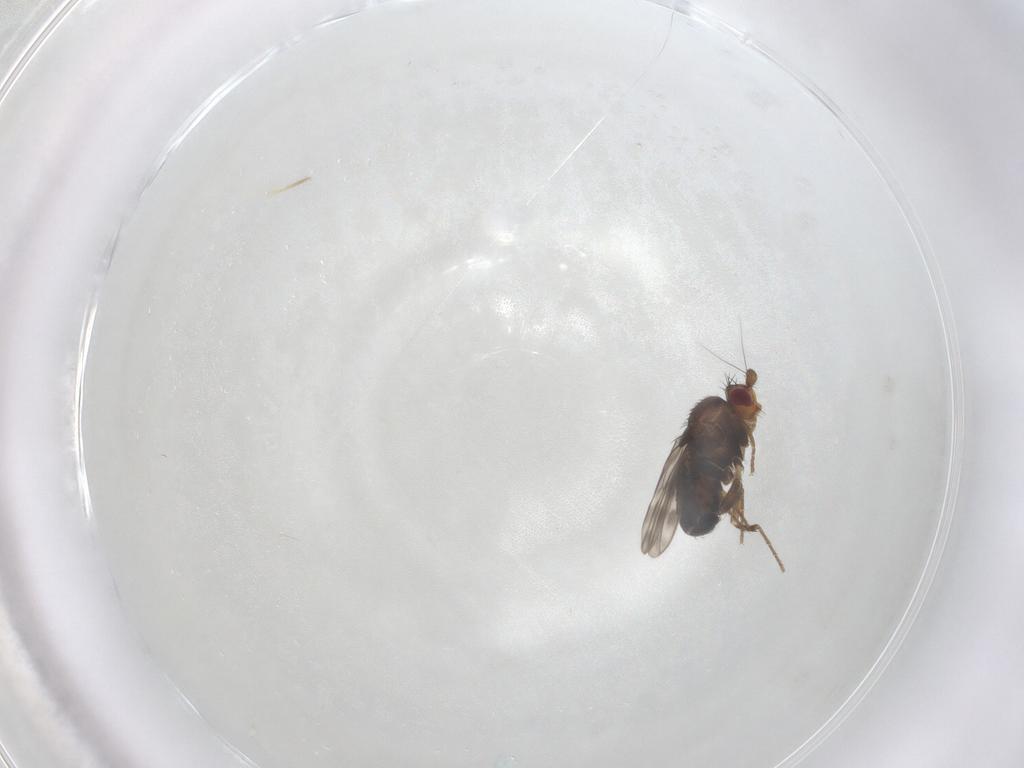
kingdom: Animalia
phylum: Arthropoda
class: Insecta
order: Diptera
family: Sphaeroceridae
